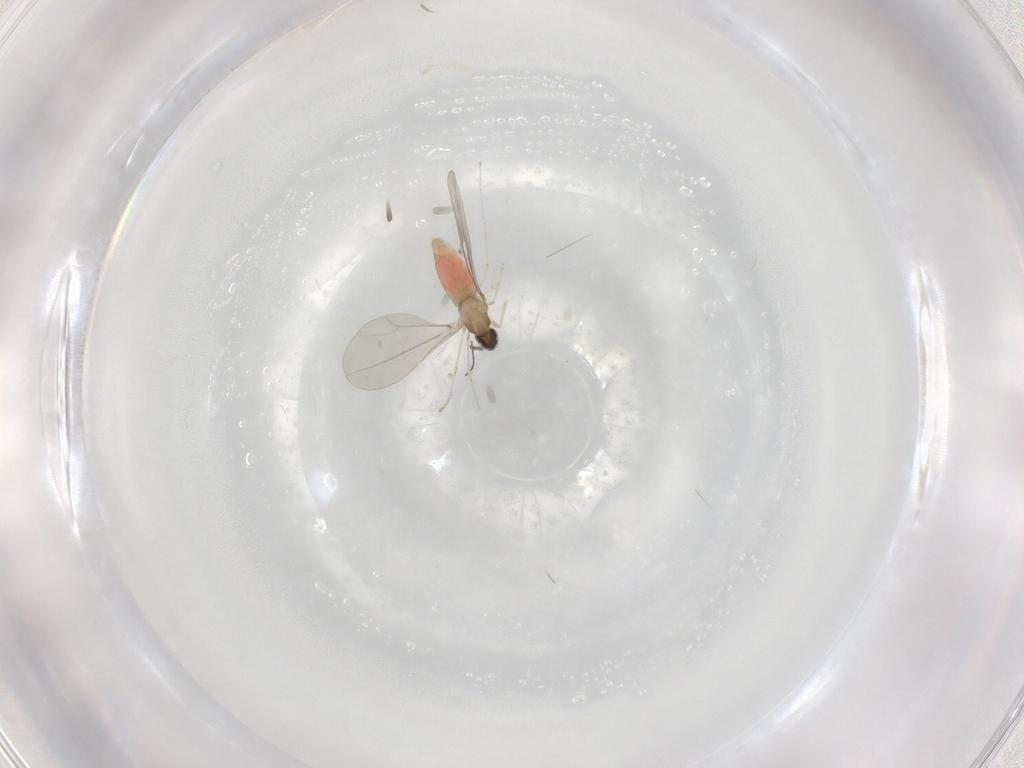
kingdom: Animalia
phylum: Arthropoda
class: Insecta
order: Diptera
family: Cecidomyiidae
